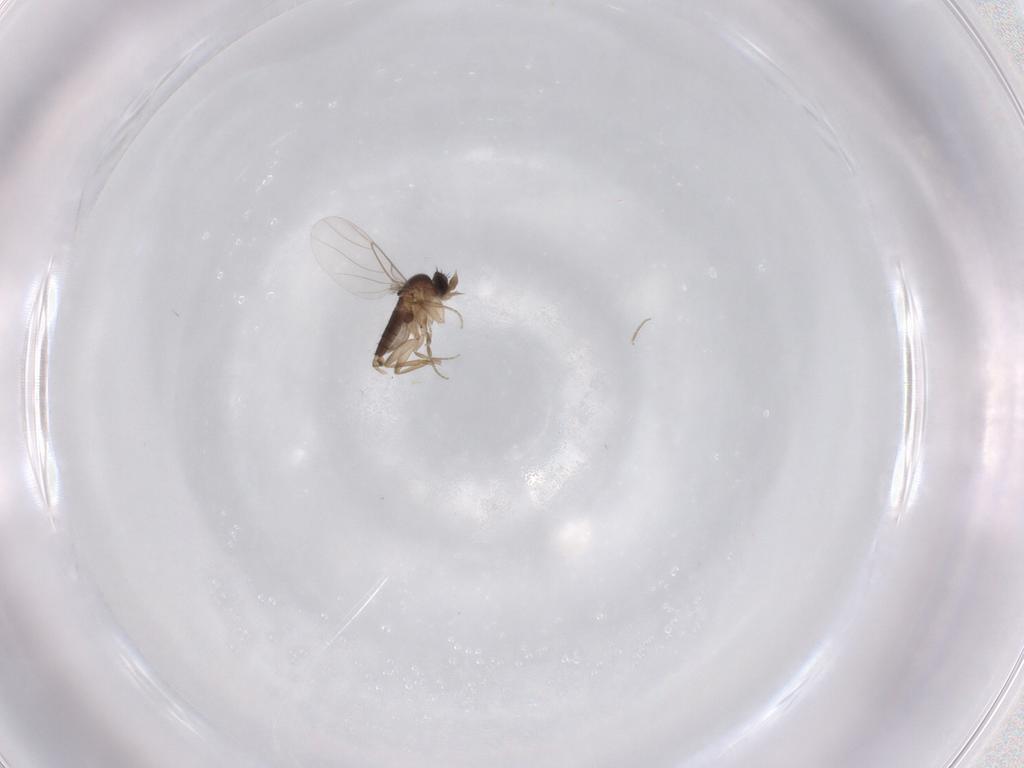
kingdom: Animalia
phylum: Arthropoda
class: Insecta
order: Diptera
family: Phoridae
